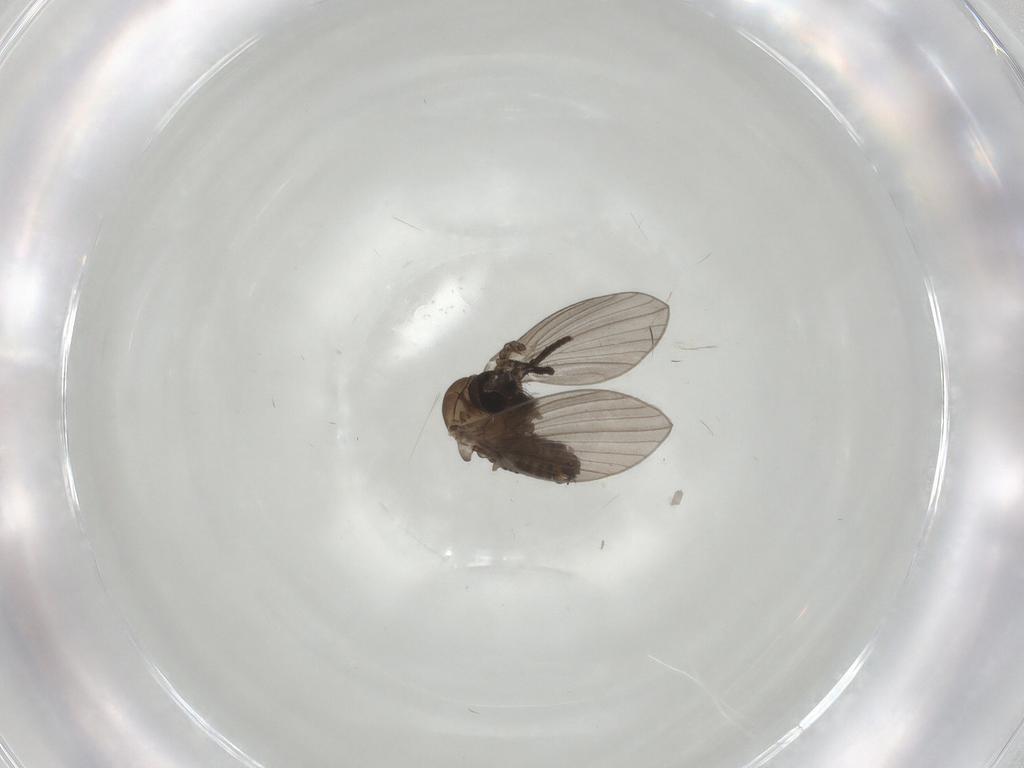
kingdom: Animalia
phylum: Arthropoda
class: Insecta
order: Diptera
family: Psychodidae
